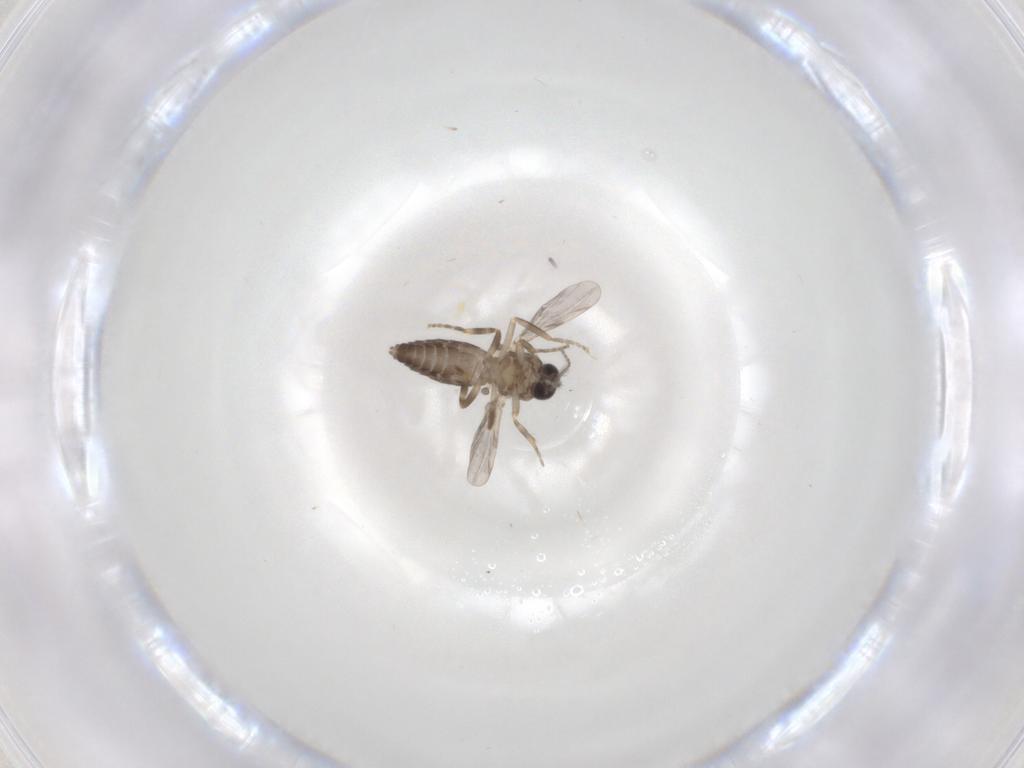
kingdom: Animalia
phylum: Arthropoda
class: Insecta
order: Diptera
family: Ceratopogonidae
